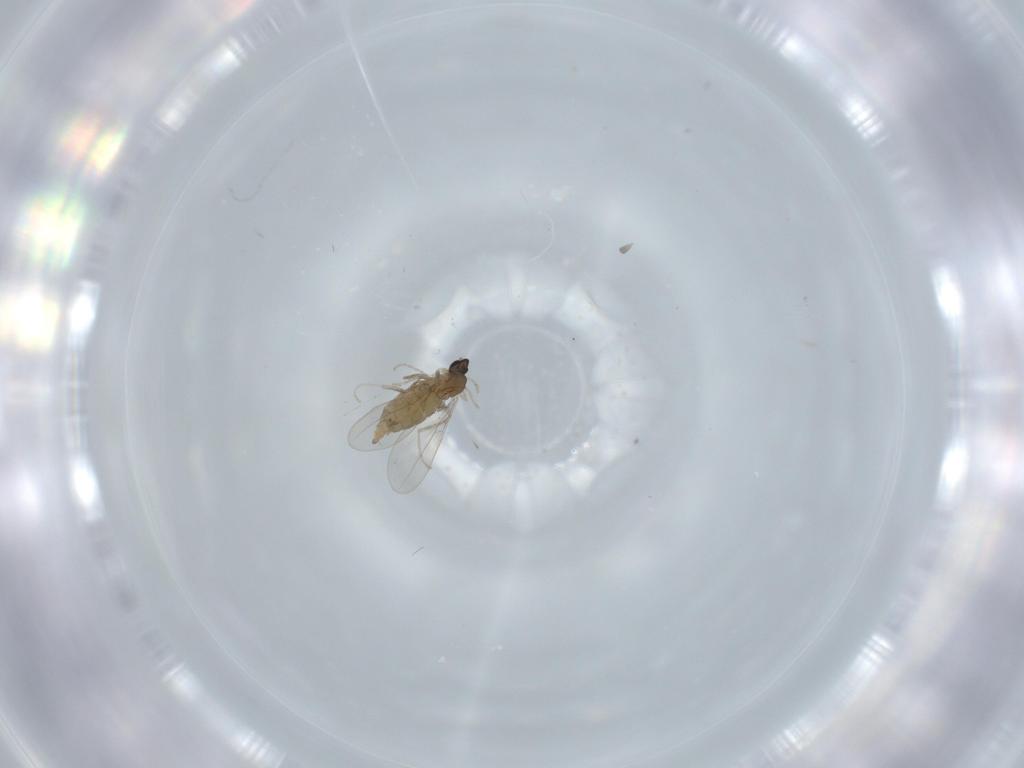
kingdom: Animalia
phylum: Arthropoda
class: Insecta
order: Diptera
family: Cecidomyiidae
